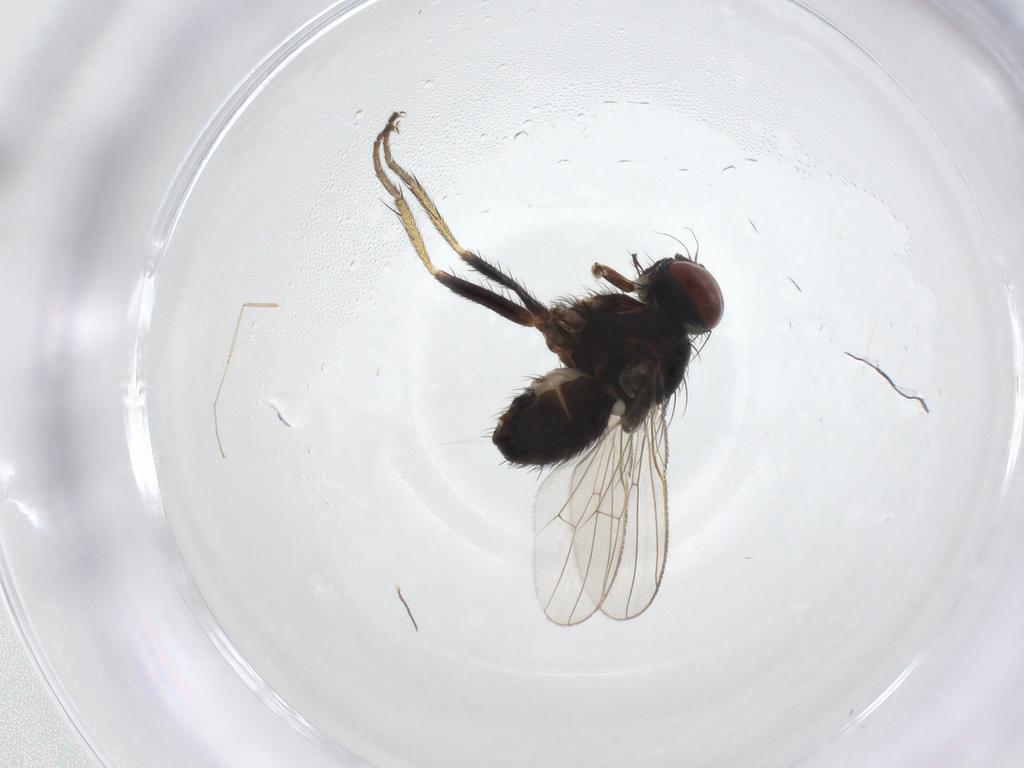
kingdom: Animalia
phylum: Arthropoda
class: Insecta
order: Diptera
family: Muscidae
